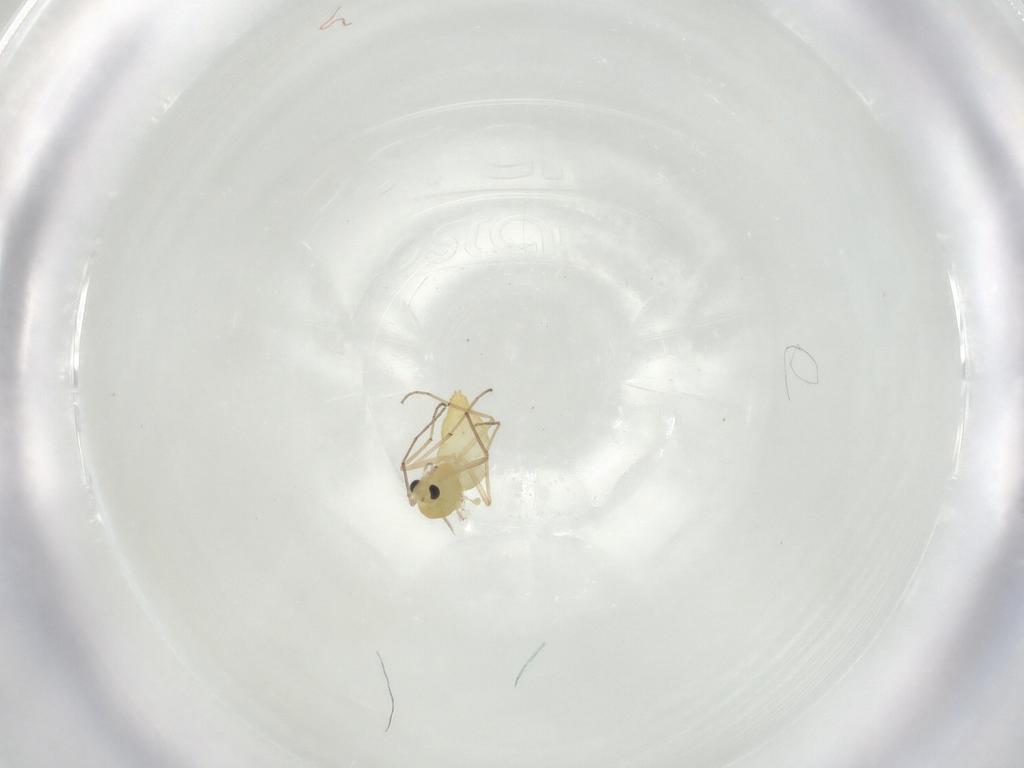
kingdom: Animalia
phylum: Arthropoda
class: Insecta
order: Diptera
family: Chironomidae
